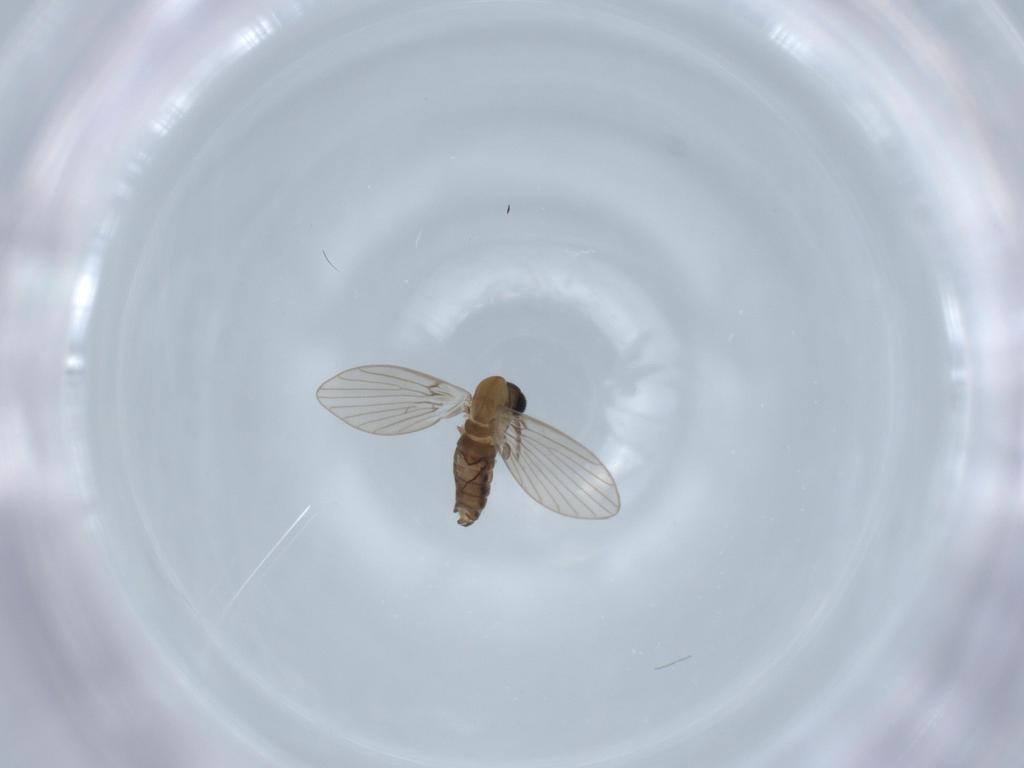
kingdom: Animalia
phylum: Arthropoda
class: Insecta
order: Diptera
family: Psychodidae
